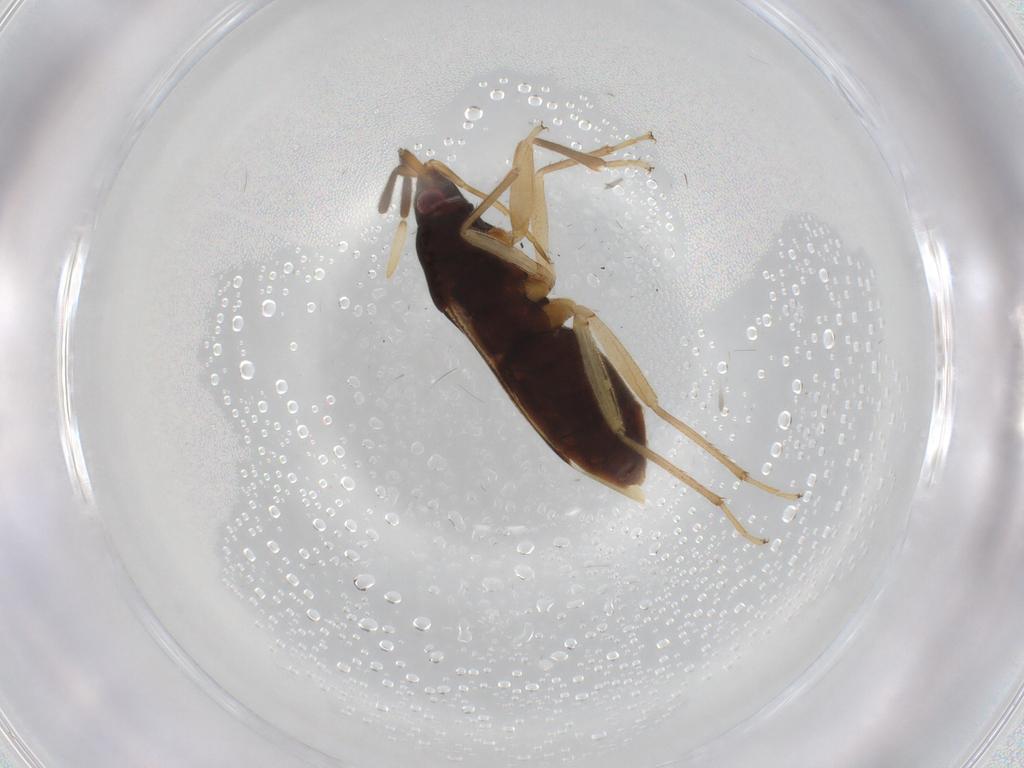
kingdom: Animalia
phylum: Arthropoda
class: Insecta
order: Hemiptera
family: Rhyparochromidae
